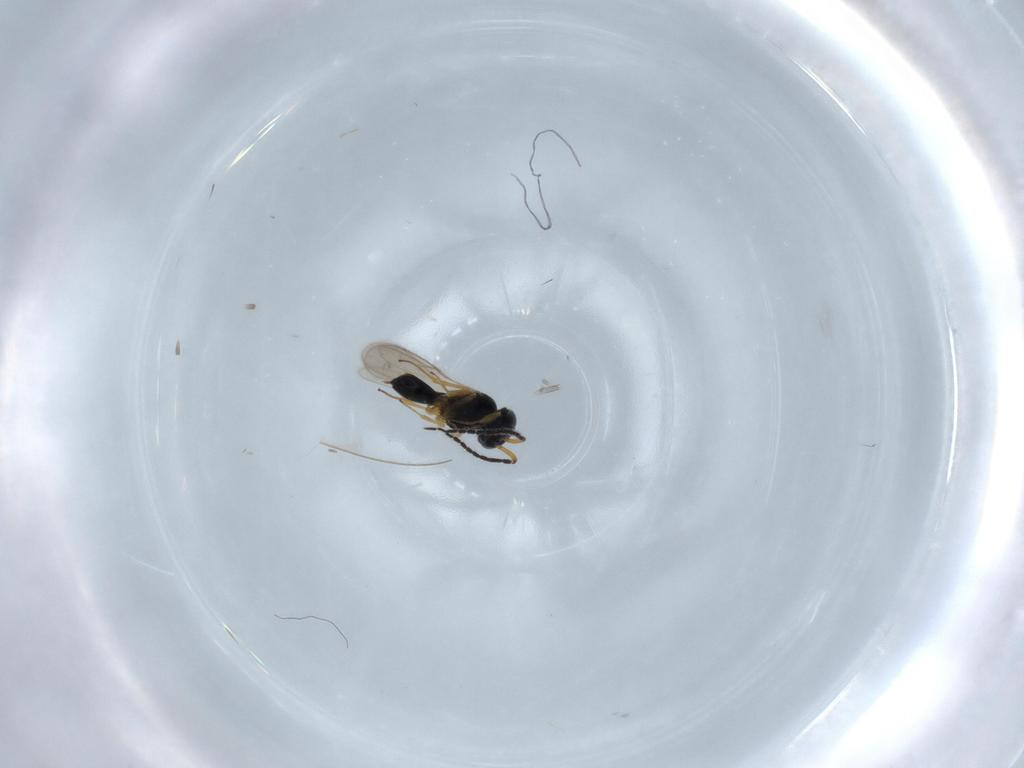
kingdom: Animalia
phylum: Arthropoda
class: Insecta
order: Hymenoptera
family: Scelionidae
